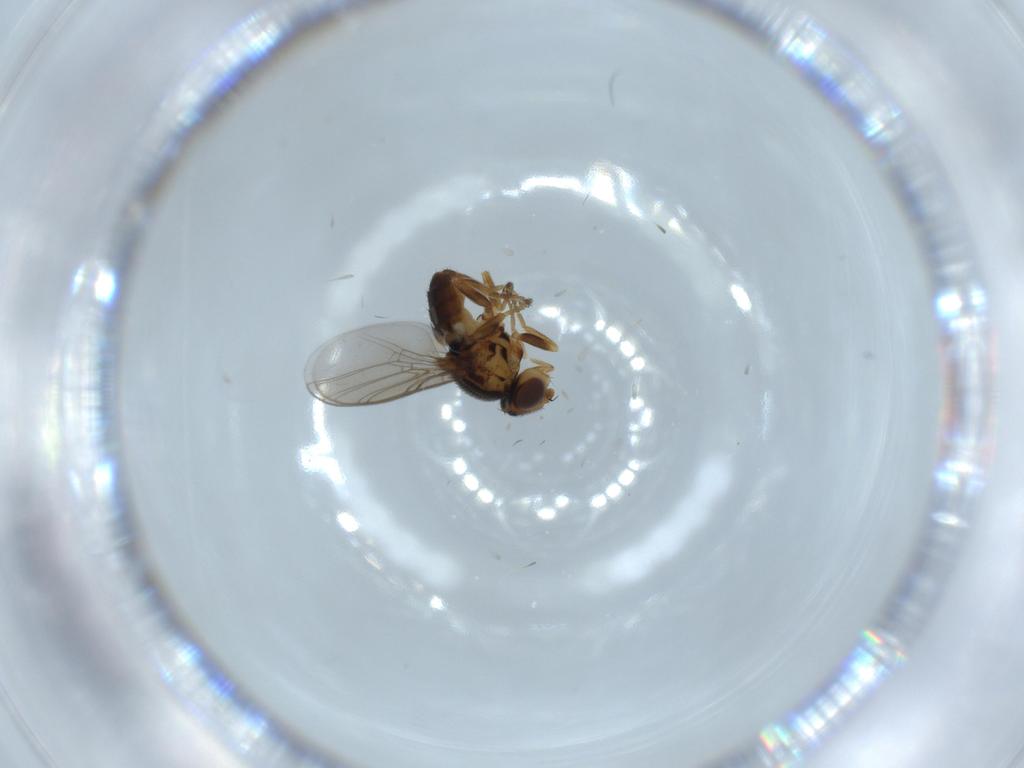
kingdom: Animalia
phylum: Arthropoda
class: Insecta
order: Diptera
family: Chloropidae
